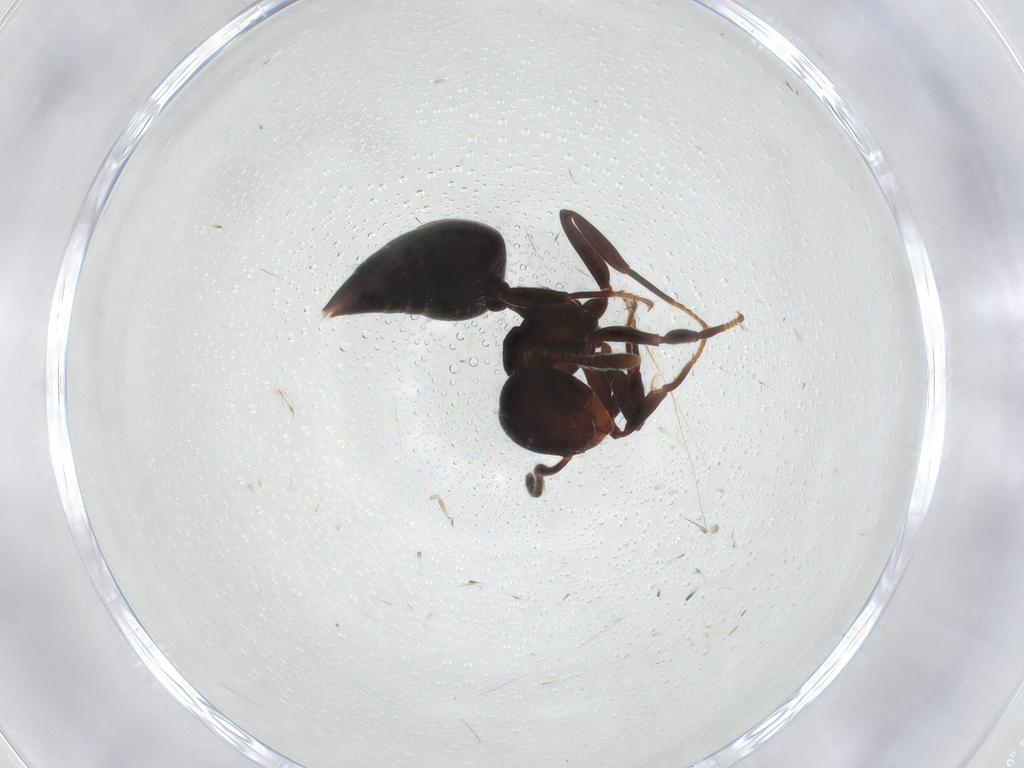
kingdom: Animalia
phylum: Arthropoda
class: Insecta
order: Hymenoptera
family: Formicidae
